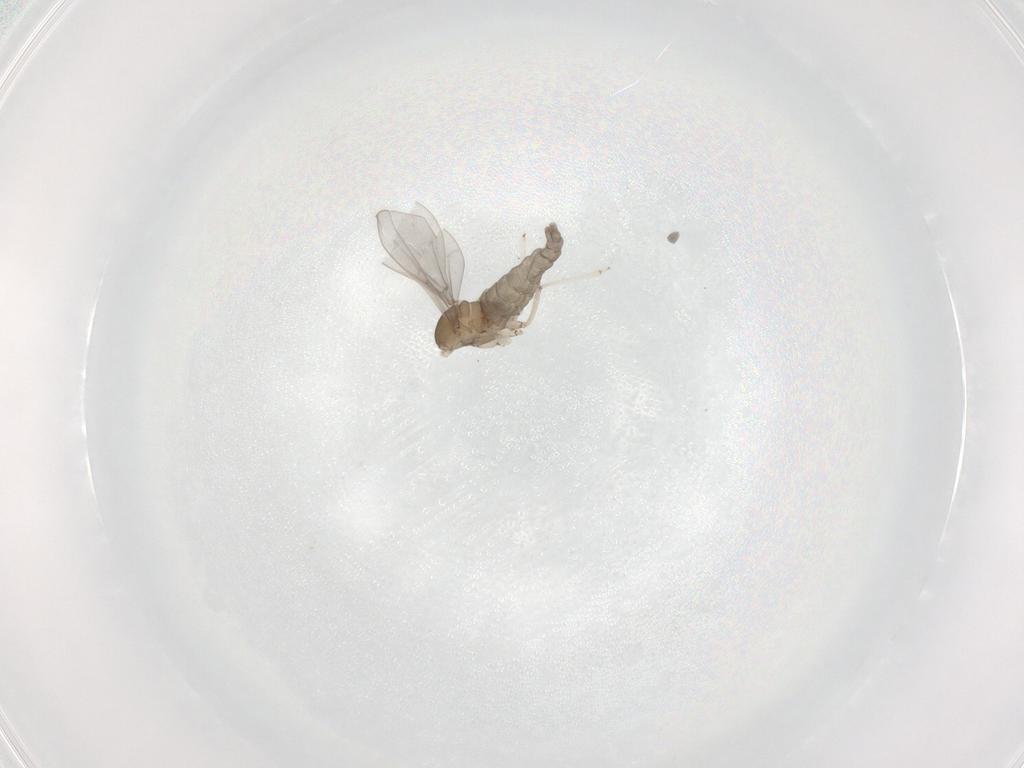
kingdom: Animalia
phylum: Arthropoda
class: Insecta
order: Diptera
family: Cecidomyiidae
